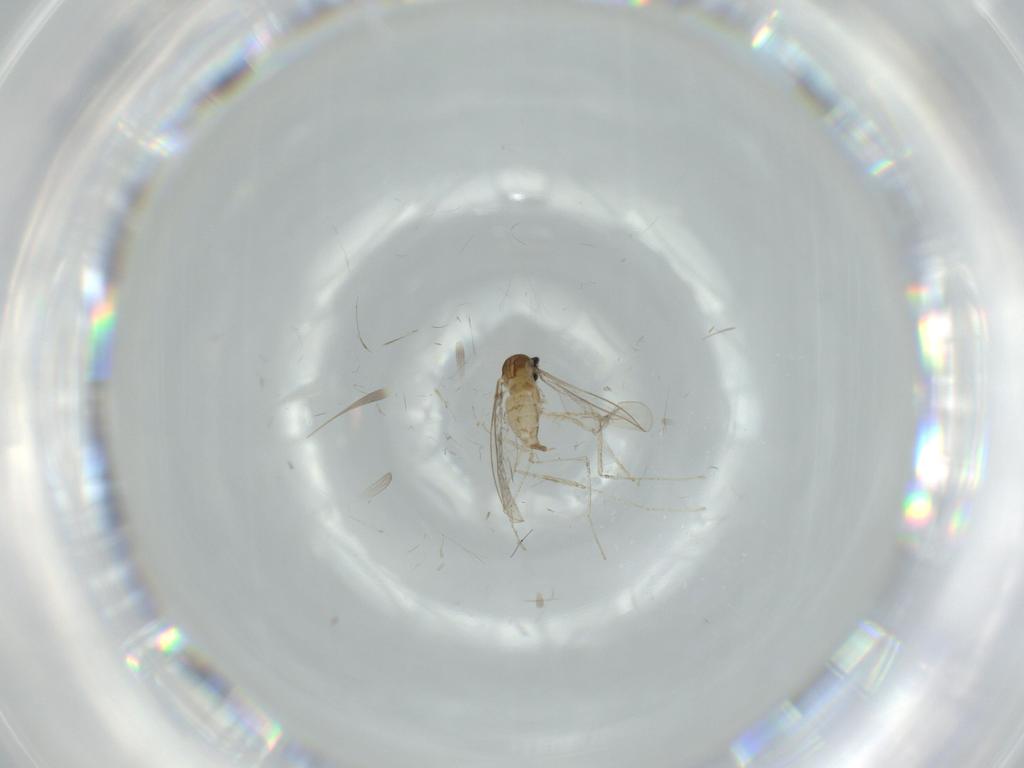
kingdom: Animalia
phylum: Arthropoda
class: Insecta
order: Diptera
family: Cecidomyiidae
